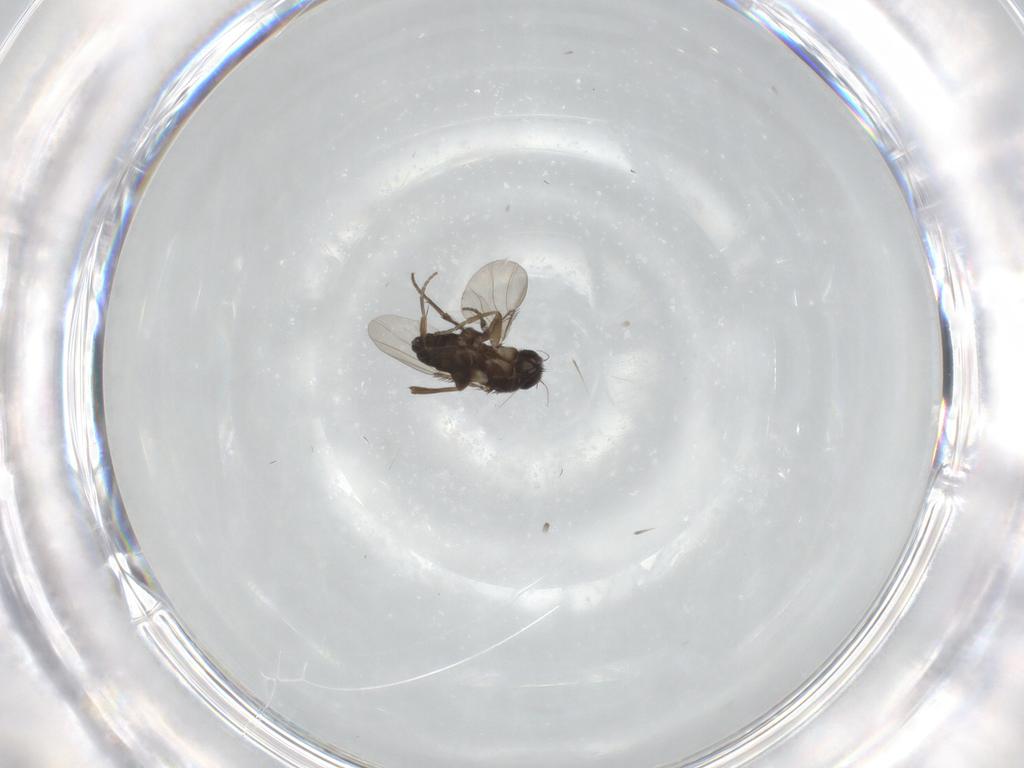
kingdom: Animalia
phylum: Arthropoda
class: Insecta
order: Diptera
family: Phoridae
